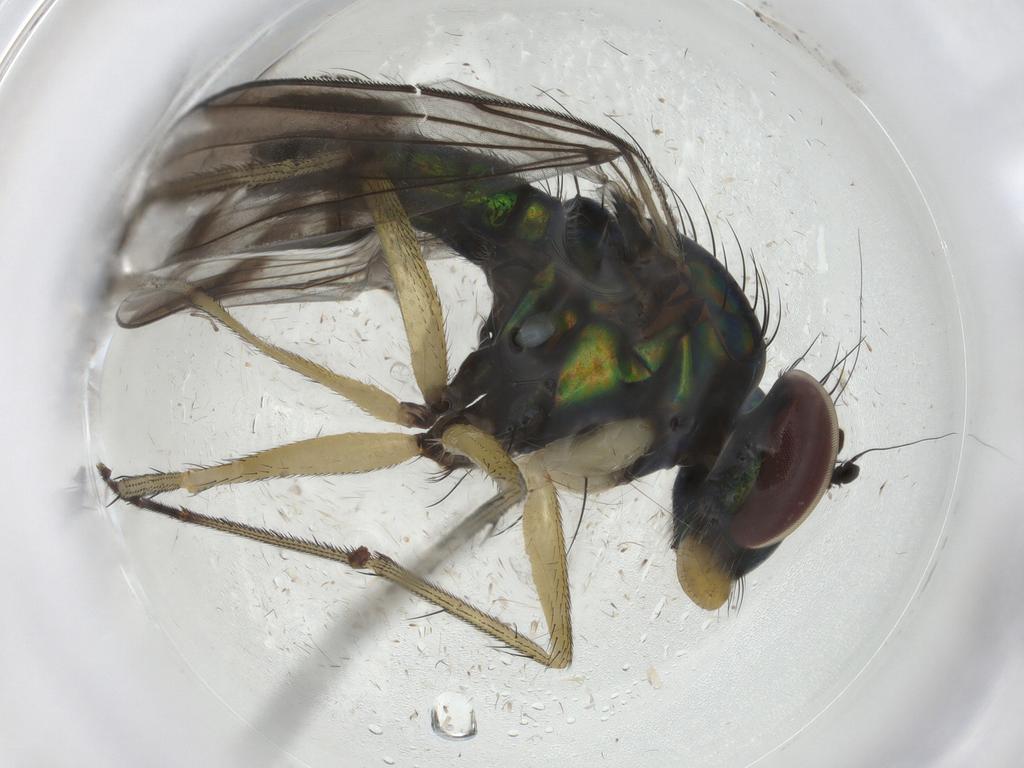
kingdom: Animalia
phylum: Arthropoda
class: Insecta
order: Diptera
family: Dolichopodidae
